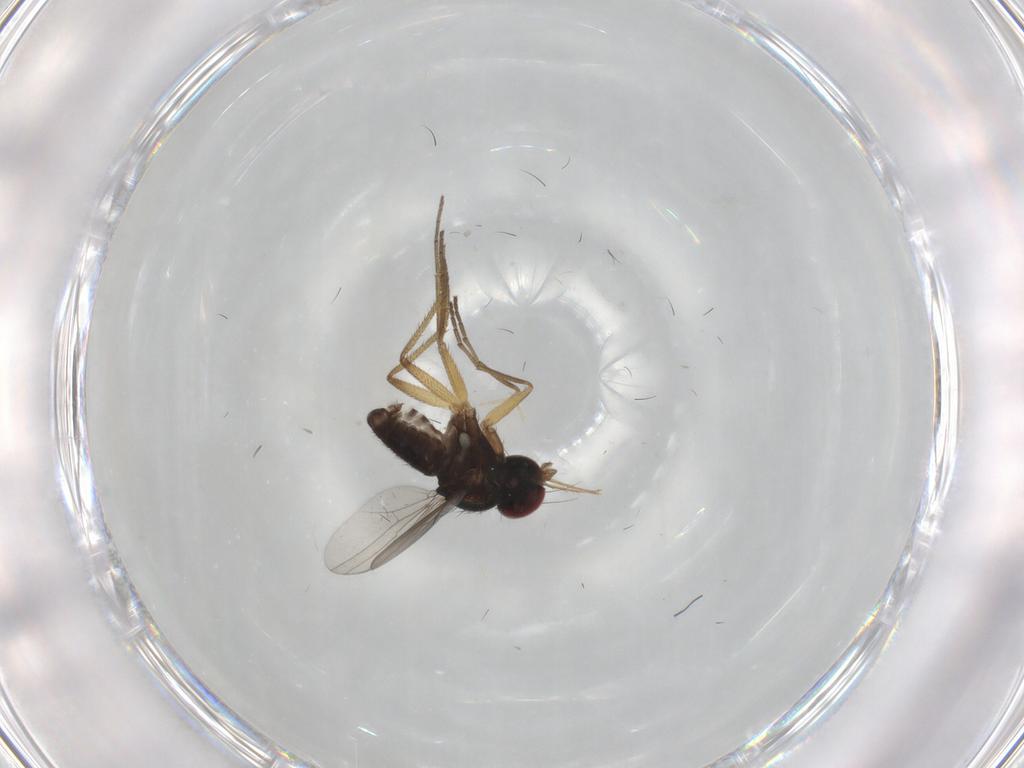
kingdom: Animalia
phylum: Arthropoda
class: Insecta
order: Diptera
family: Dolichopodidae
